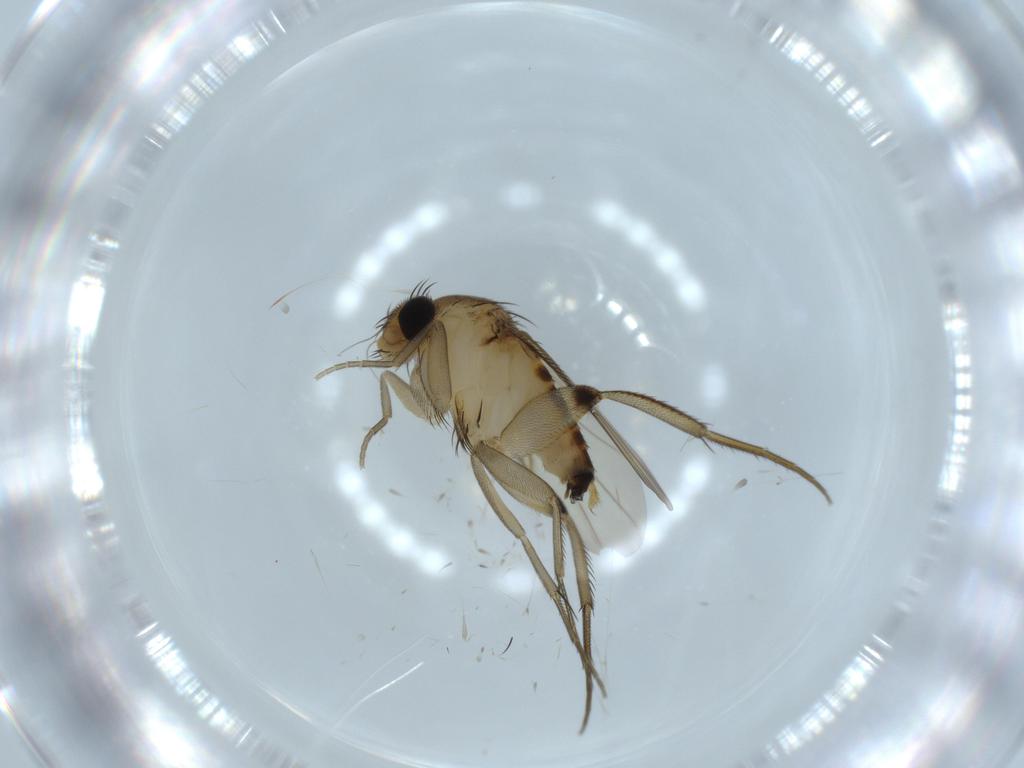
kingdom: Animalia
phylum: Arthropoda
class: Insecta
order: Diptera
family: Phoridae
